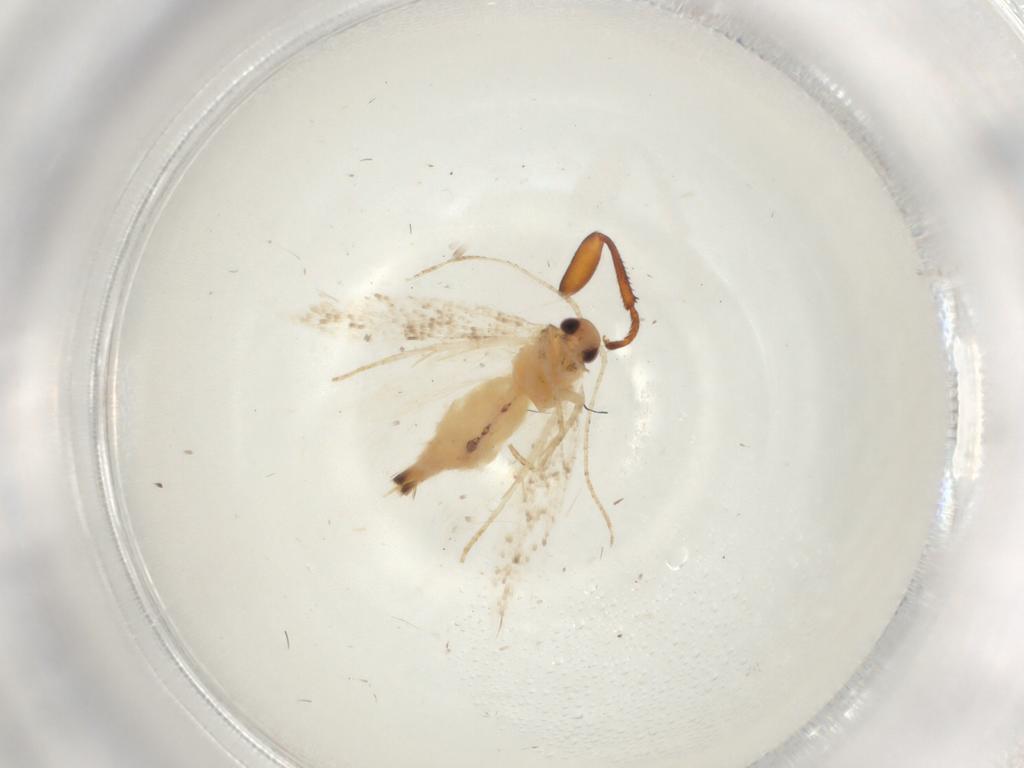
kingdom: Animalia
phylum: Arthropoda
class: Insecta
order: Lepidoptera
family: Gelechiidae
